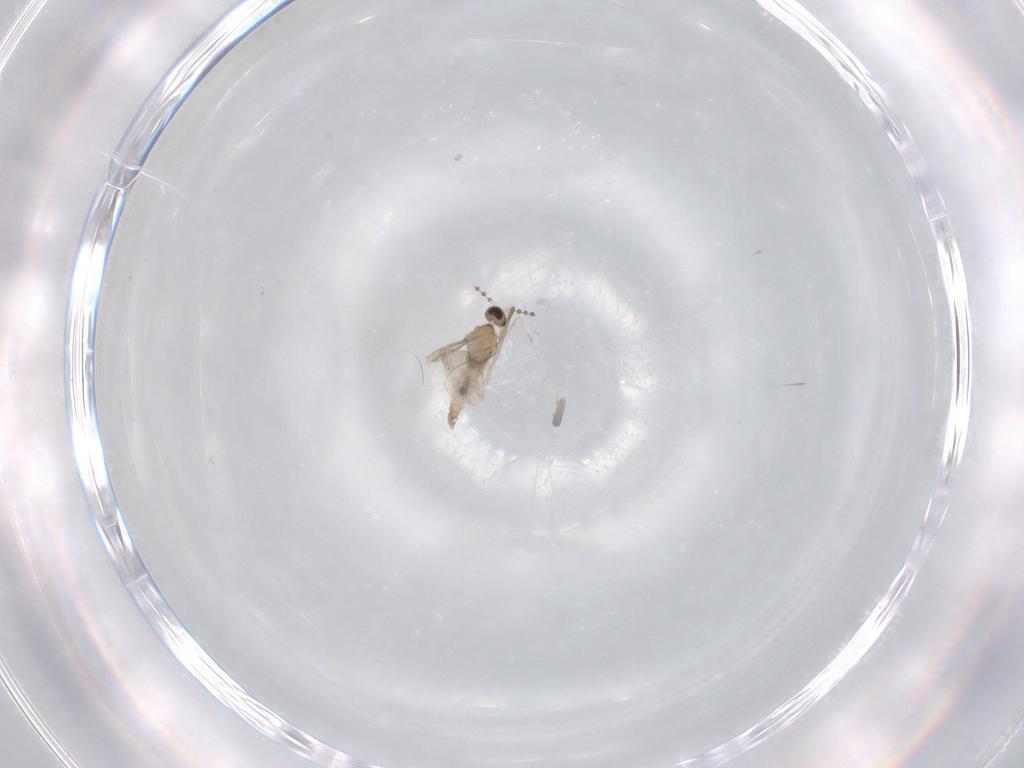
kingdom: Animalia
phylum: Arthropoda
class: Insecta
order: Diptera
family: Cecidomyiidae
